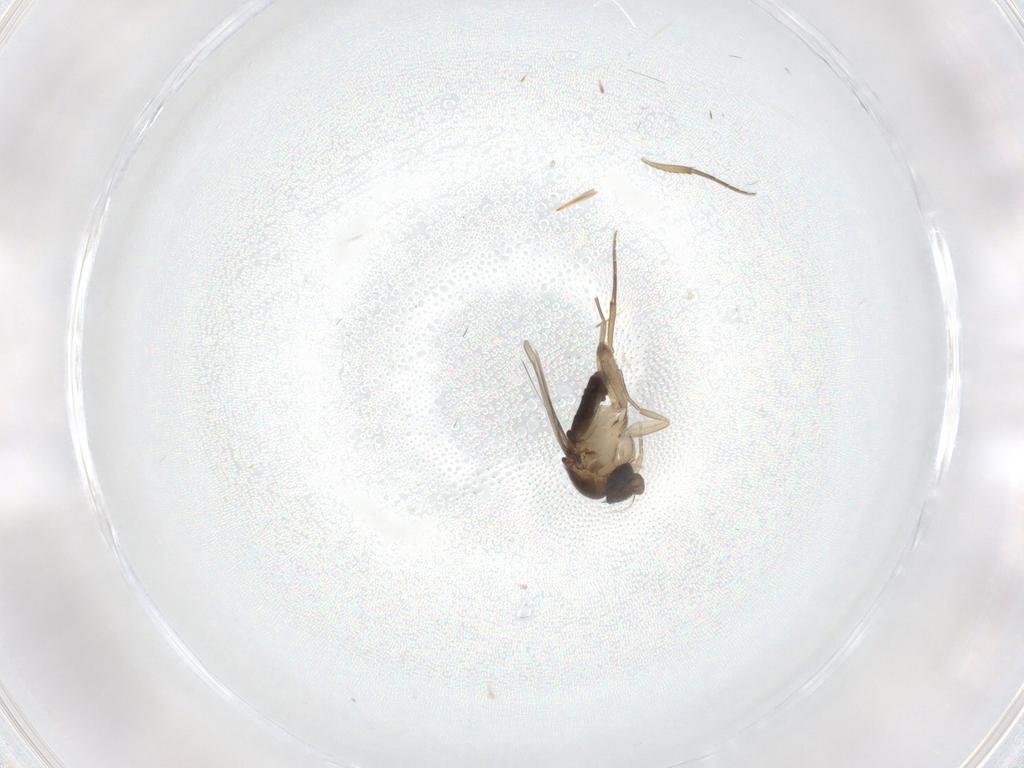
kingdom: Animalia
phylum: Arthropoda
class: Insecta
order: Diptera
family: Phoridae
